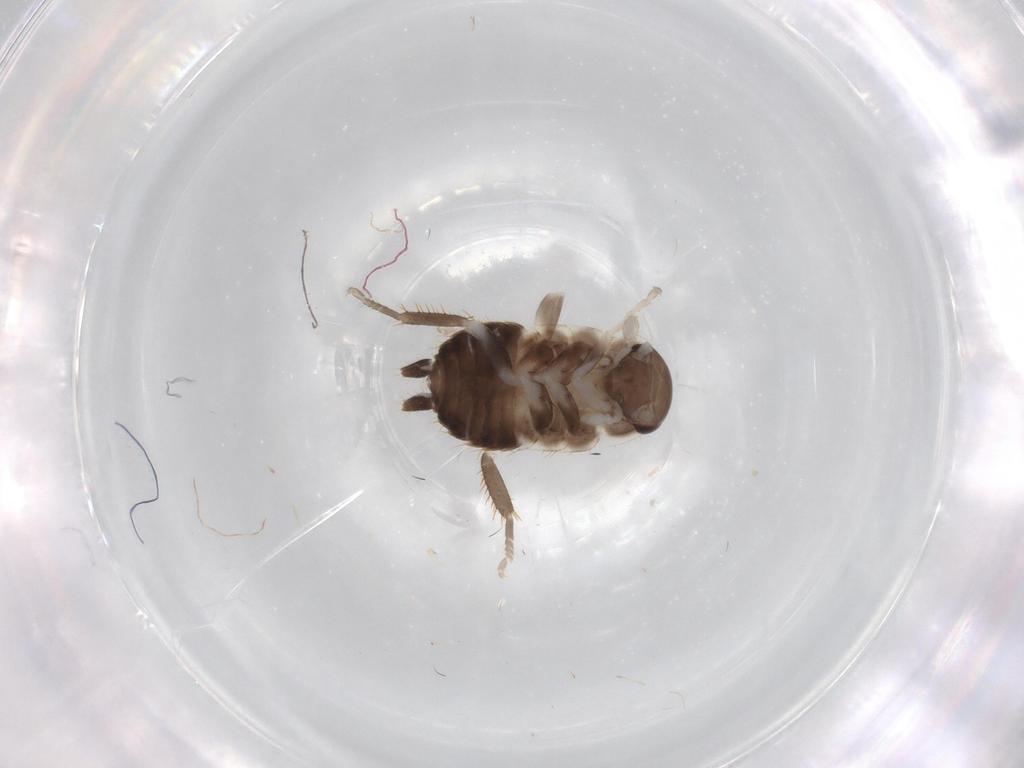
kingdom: Animalia
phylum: Arthropoda
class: Insecta
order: Blattodea
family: Ectobiidae
